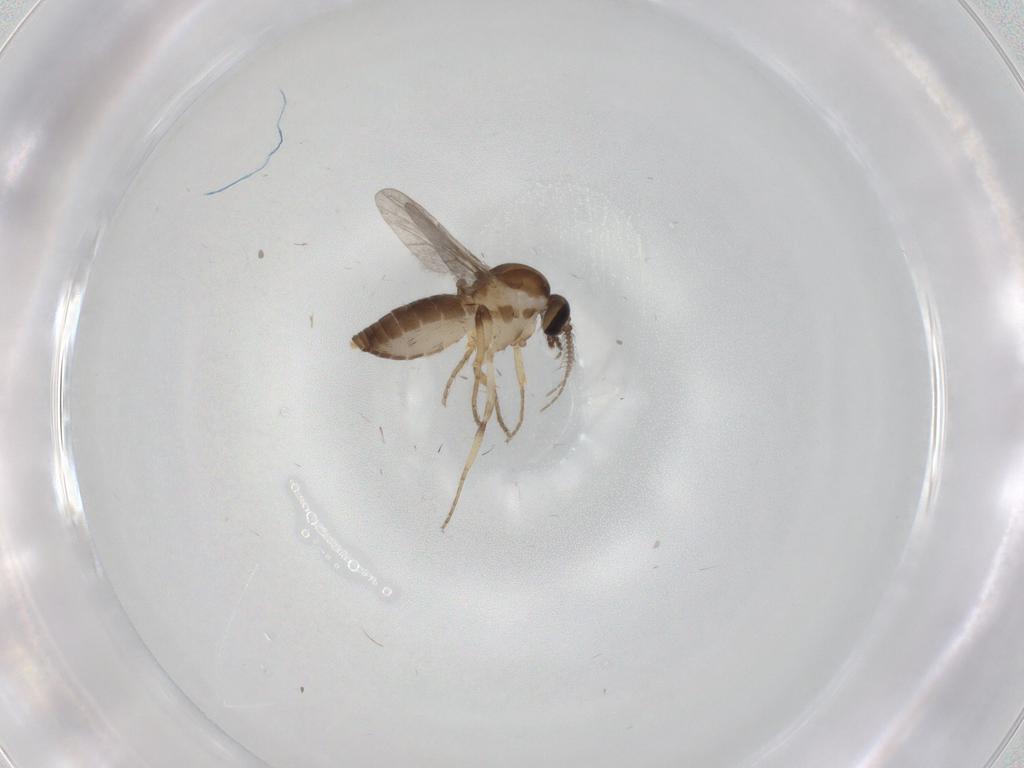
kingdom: Animalia
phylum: Arthropoda
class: Insecta
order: Diptera
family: Ceratopogonidae
